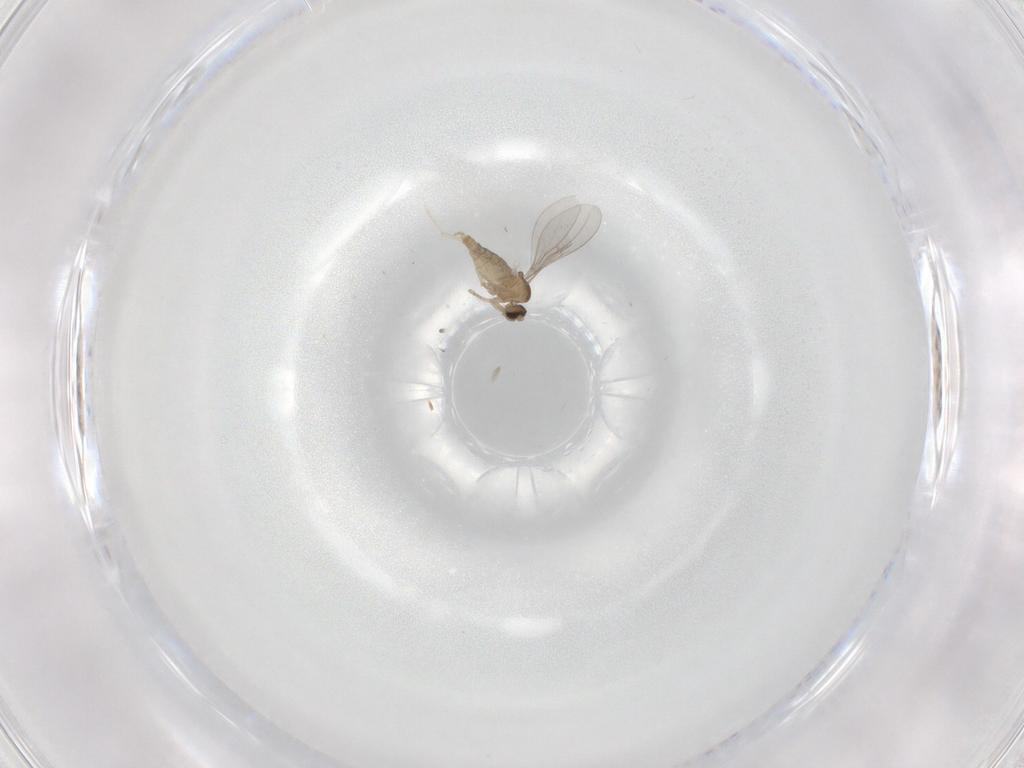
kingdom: Animalia
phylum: Arthropoda
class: Insecta
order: Diptera
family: Cecidomyiidae
